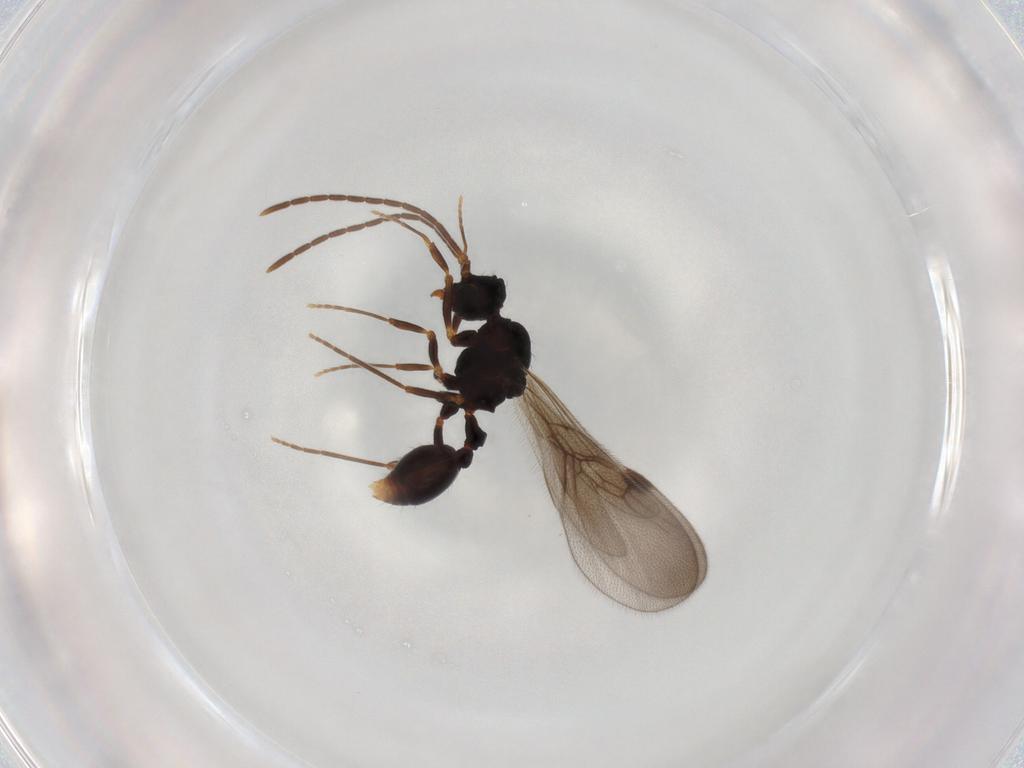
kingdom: Animalia
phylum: Arthropoda
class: Insecta
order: Hymenoptera
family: Formicidae
